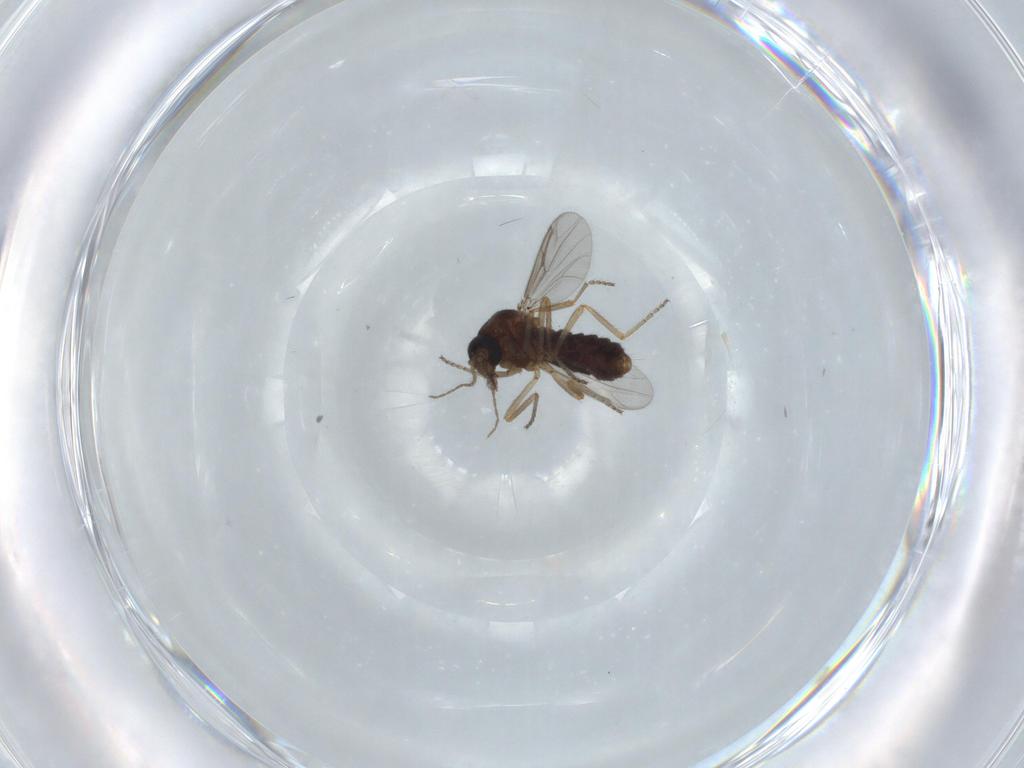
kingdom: Animalia
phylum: Arthropoda
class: Insecta
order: Diptera
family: Ceratopogonidae
